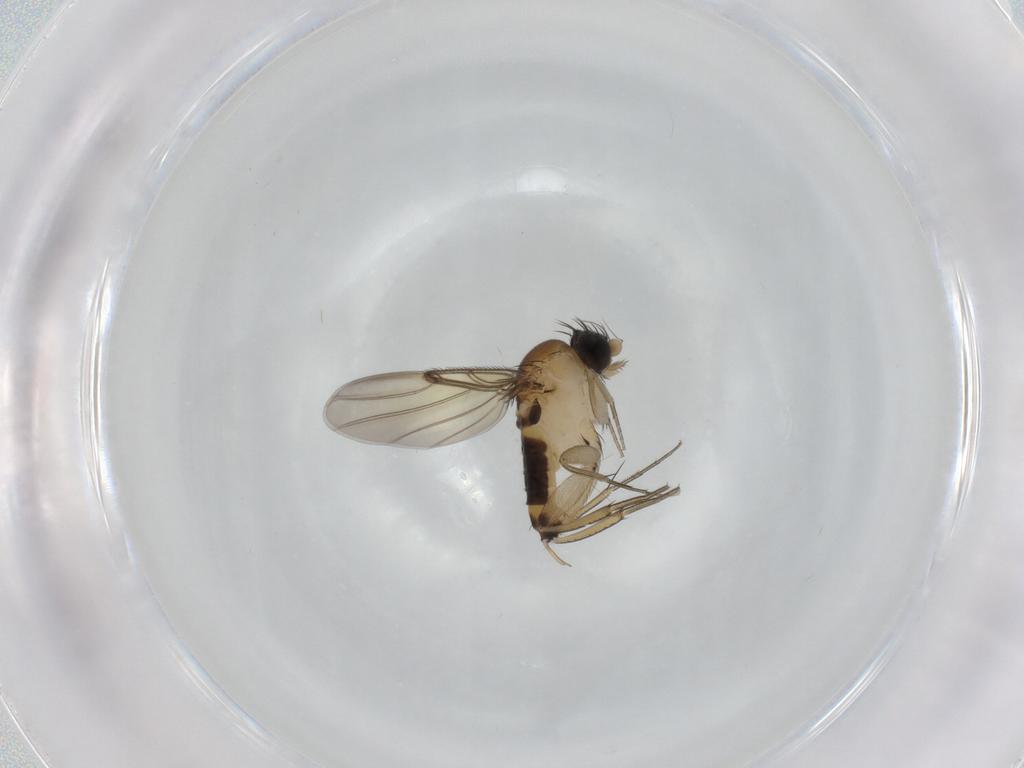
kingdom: Animalia
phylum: Arthropoda
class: Insecta
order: Diptera
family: Phoridae
